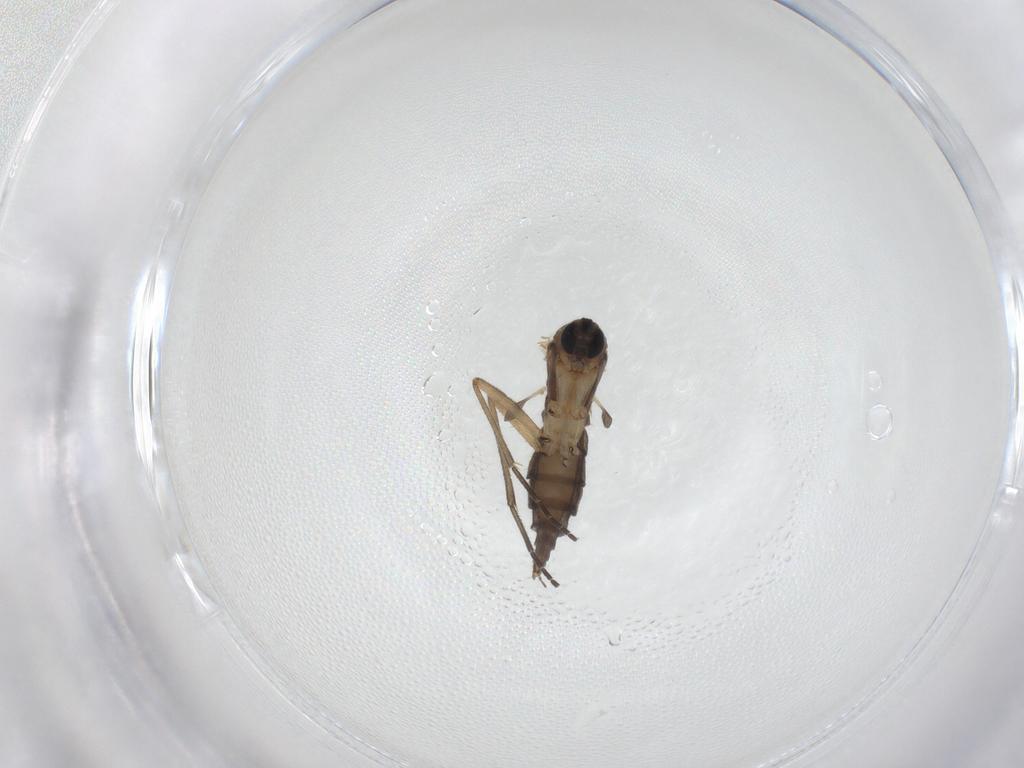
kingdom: Animalia
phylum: Arthropoda
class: Insecta
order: Diptera
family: Sciaridae
